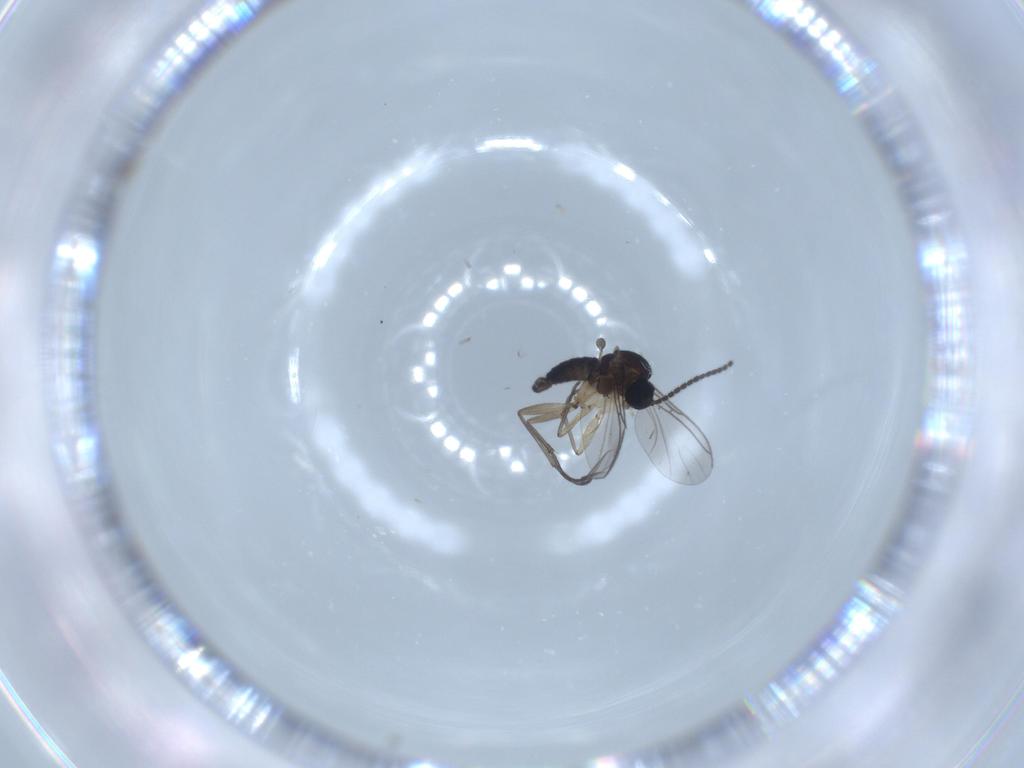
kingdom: Animalia
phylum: Arthropoda
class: Insecta
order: Diptera
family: Sciaridae
